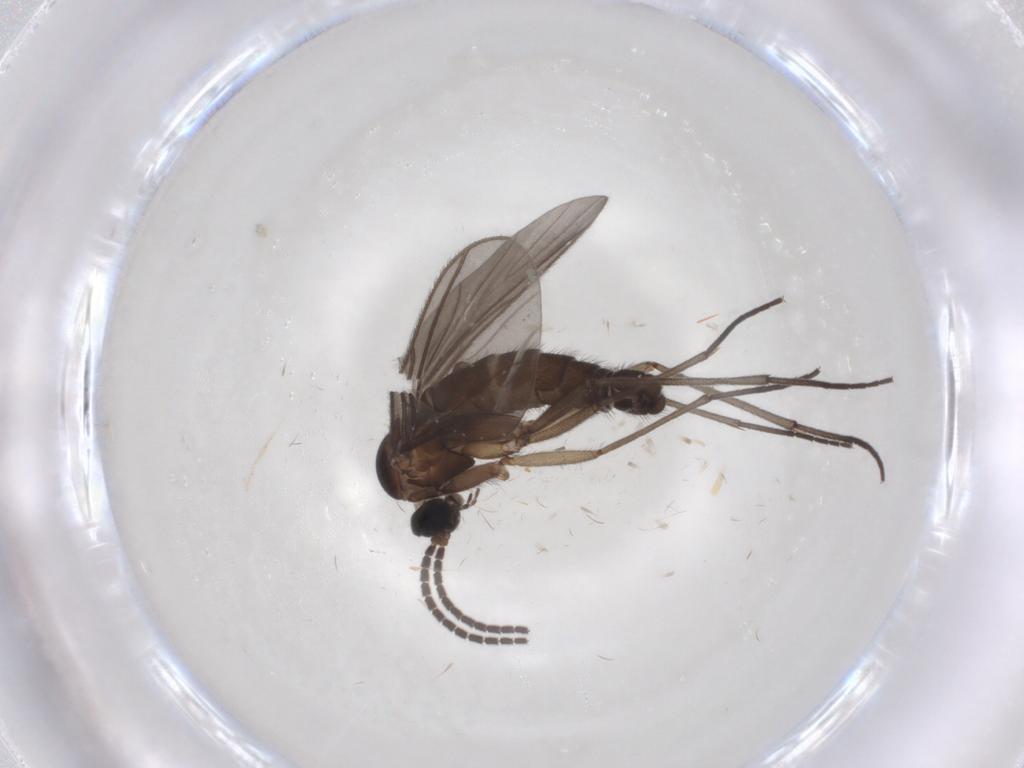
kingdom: Animalia
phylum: Arthropoda
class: Insecta
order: Diptera
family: Sciaridae
